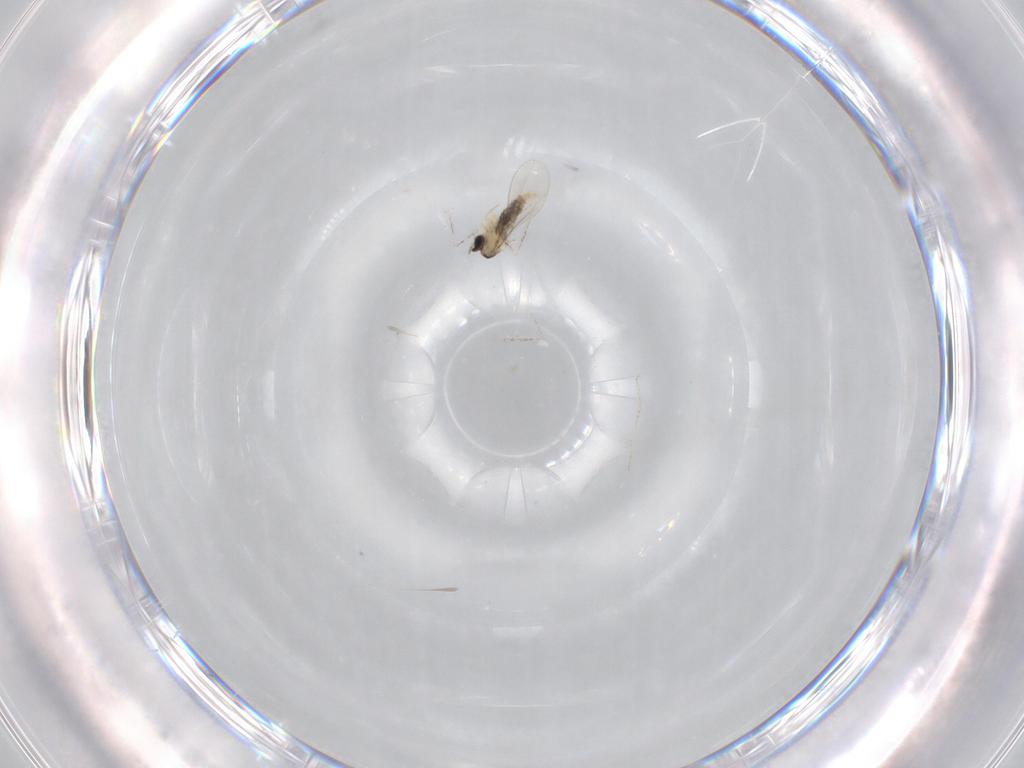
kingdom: Animalia
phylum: Arthropoda
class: Insecta
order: Diptera
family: Cecidomyiidae
